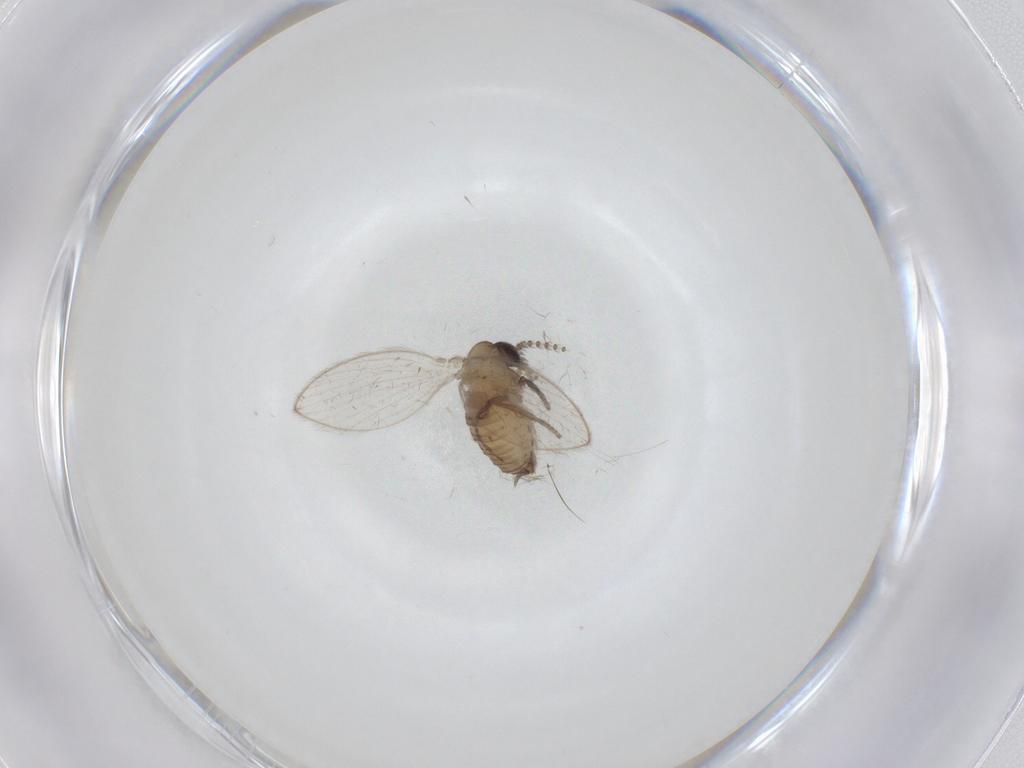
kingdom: Animalia
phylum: Arthropoda
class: Insecta
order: Diptera
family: Psychodidae
